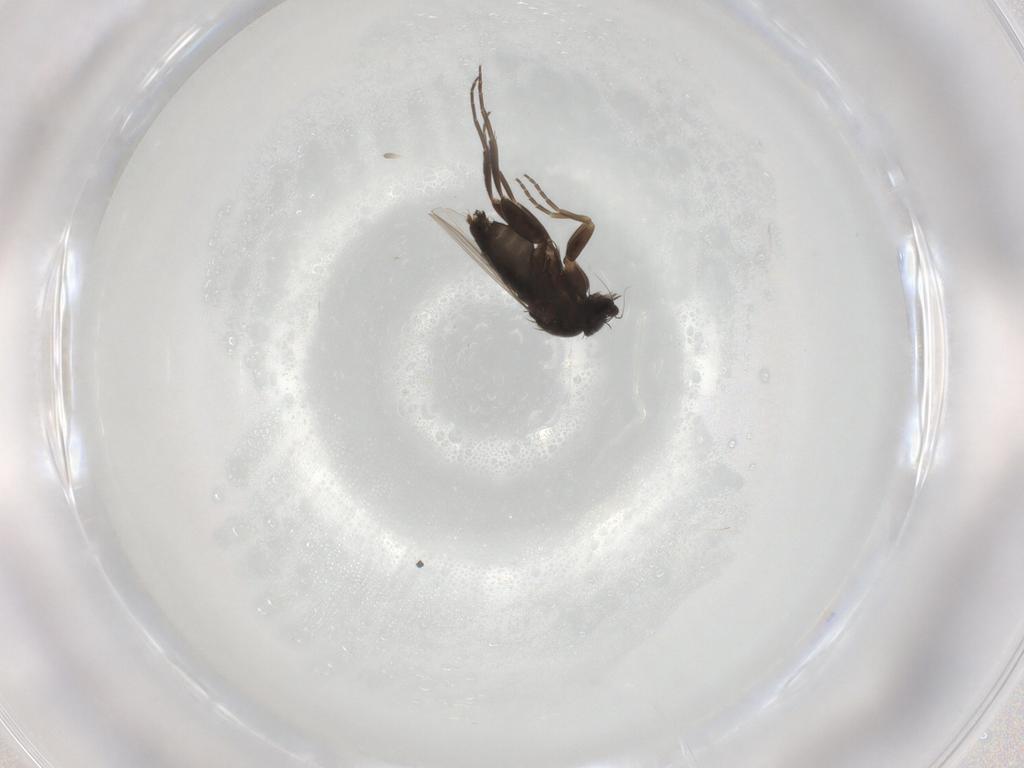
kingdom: Animalia
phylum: Arthropoda
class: Insecta
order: Diptera
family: Phoridae
